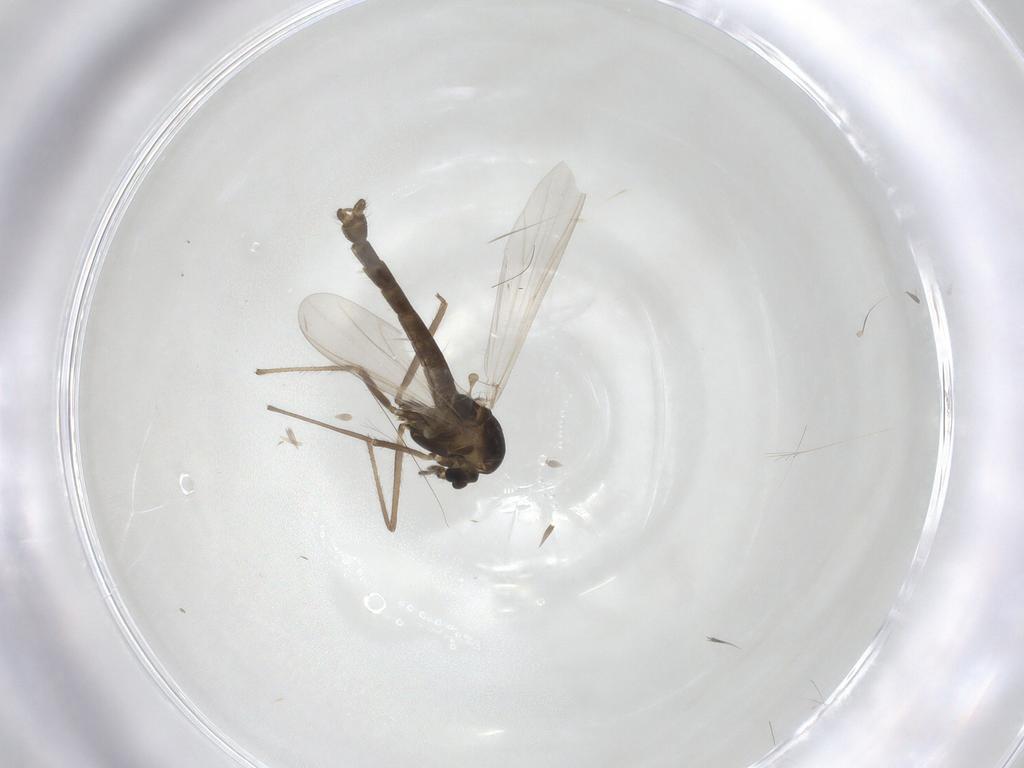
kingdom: Animalia
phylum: Arthropoda
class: Insecta
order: Diptera
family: Chironomidae
